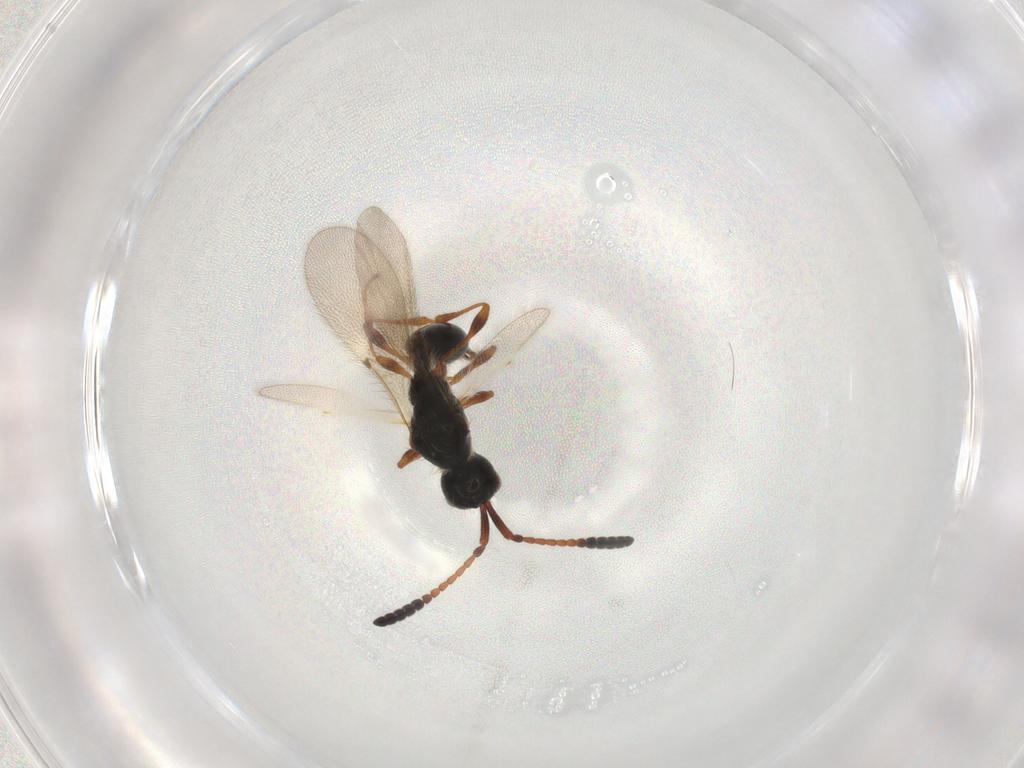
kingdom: Animalia
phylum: Arthropoda
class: Insecta
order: Hymenoptera
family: Diapriidae
